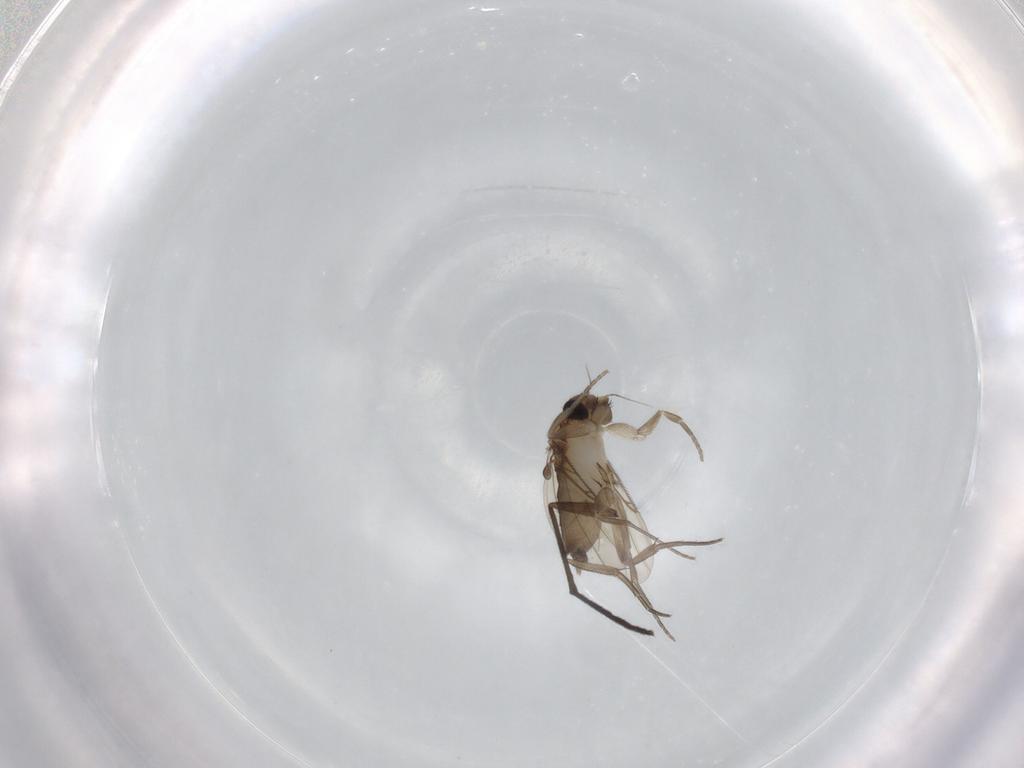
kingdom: Animalia
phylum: Arthropoda
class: Insecta
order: Diptera
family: Sciaridae
